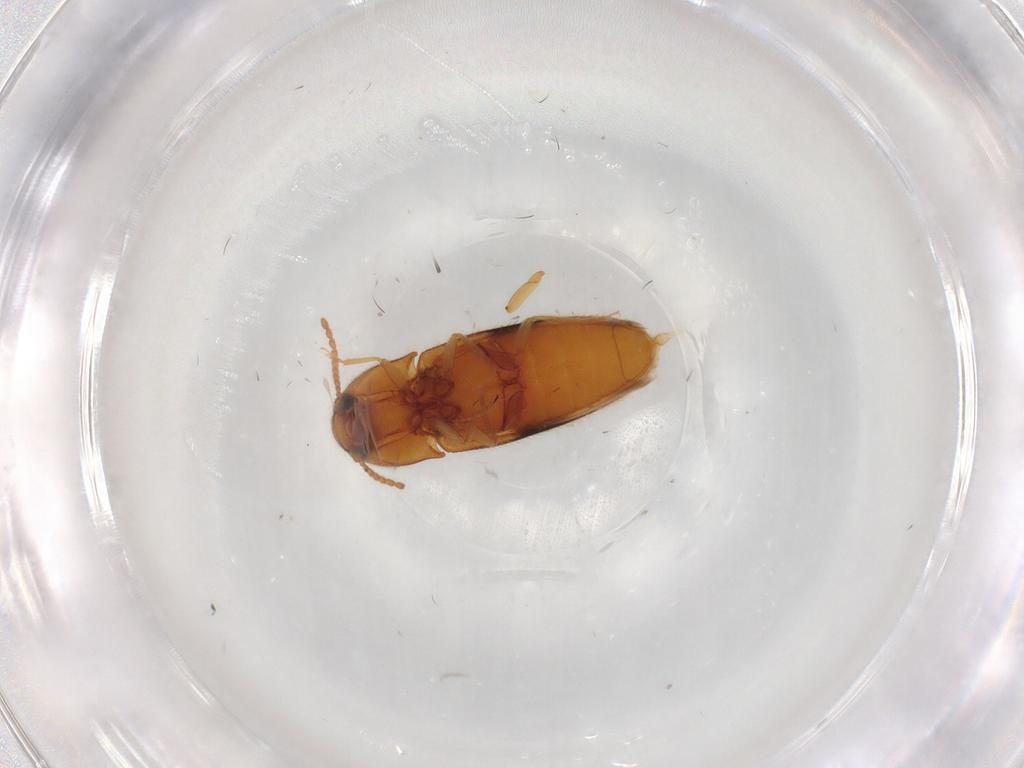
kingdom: Animalia
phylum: Arthropoda
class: Insecta
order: Coleoptera
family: Elateridae
